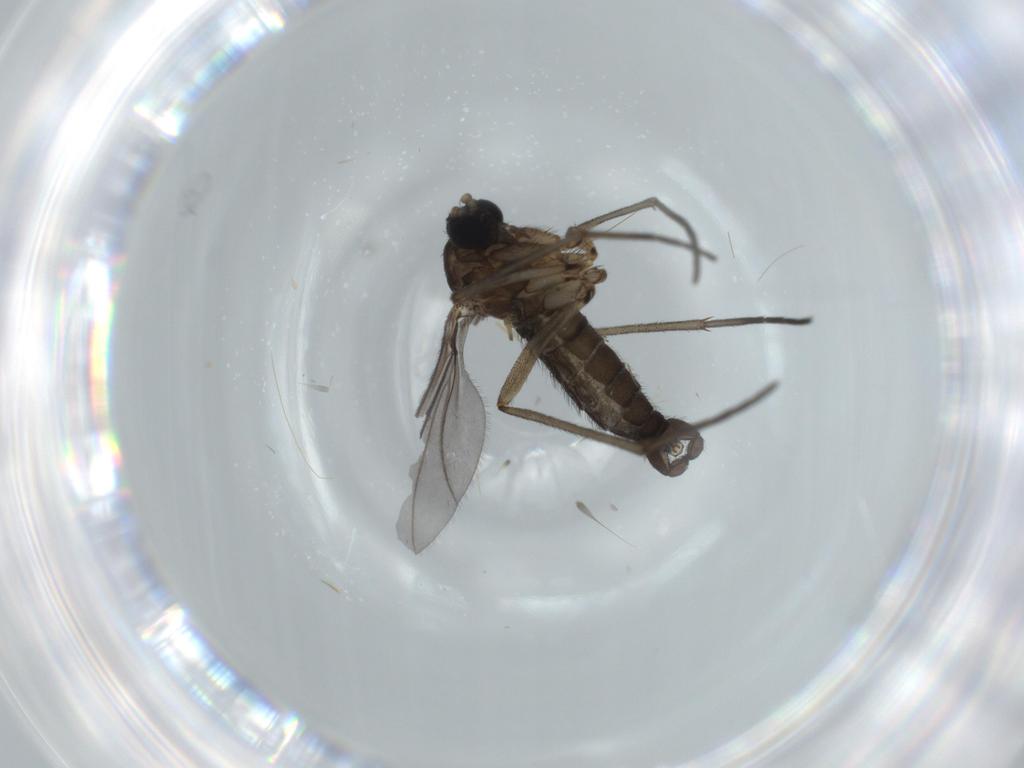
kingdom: Animalia
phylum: Arthropoda
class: Insecta
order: Diptera
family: Sciaridae
